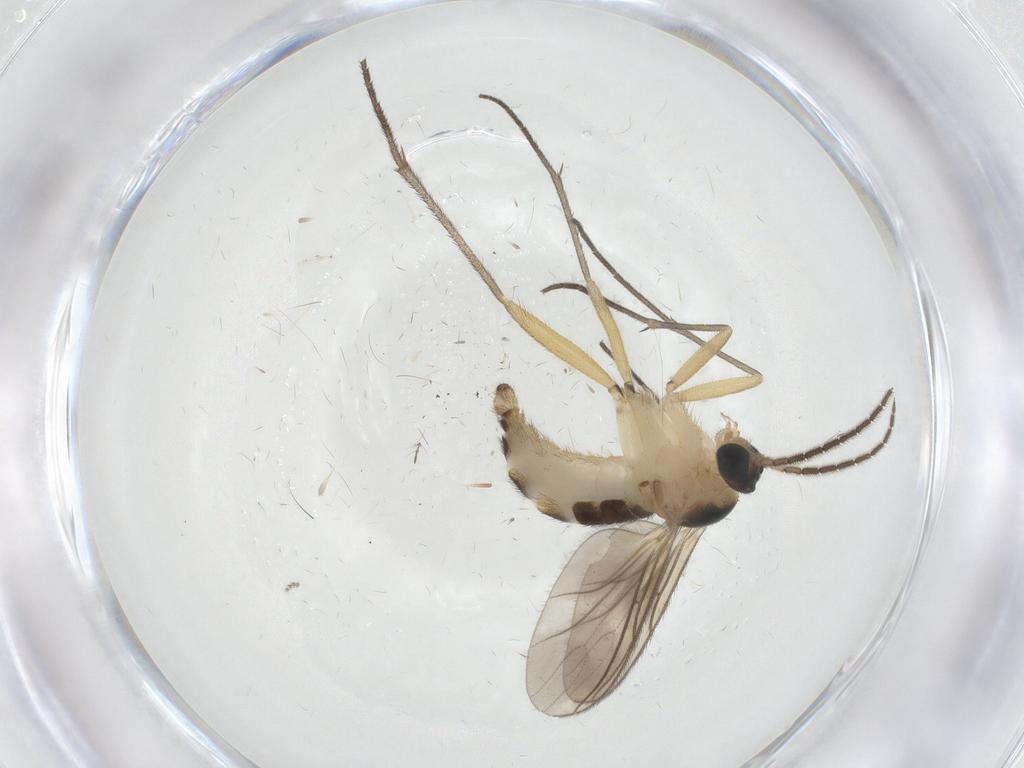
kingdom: Animalia
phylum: Arthropoda
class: Insecta
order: Diptera
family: Sciaridae
